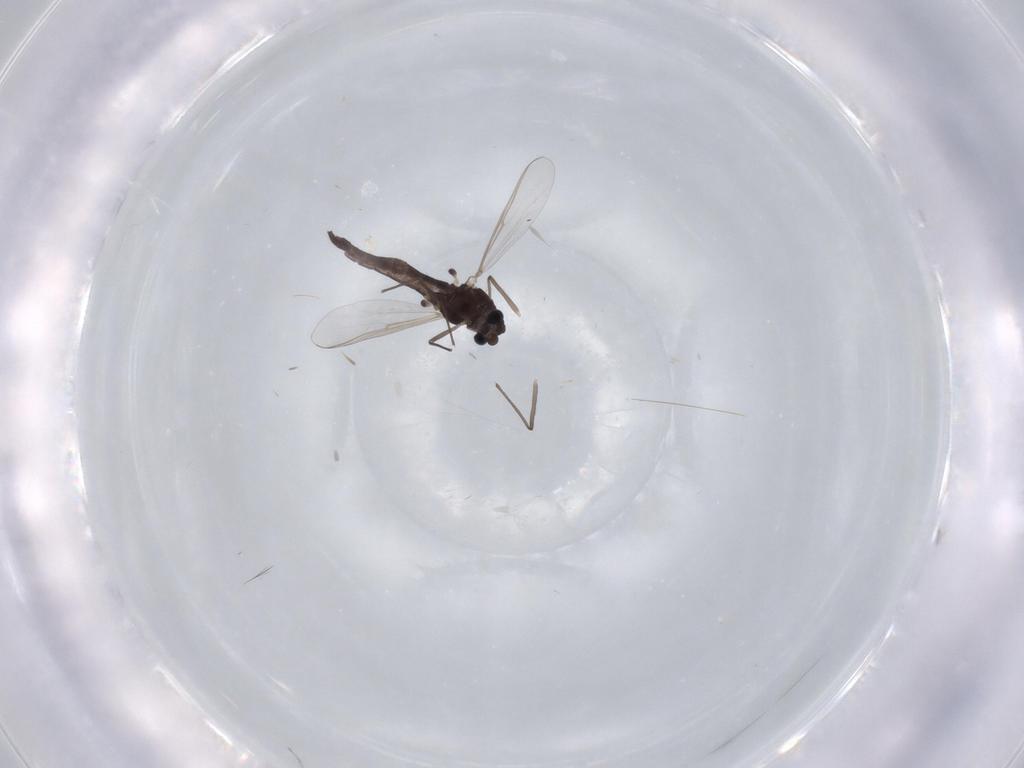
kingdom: Animalia
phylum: Arthropoda
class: Insecta
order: Diptera
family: Chironomidae
